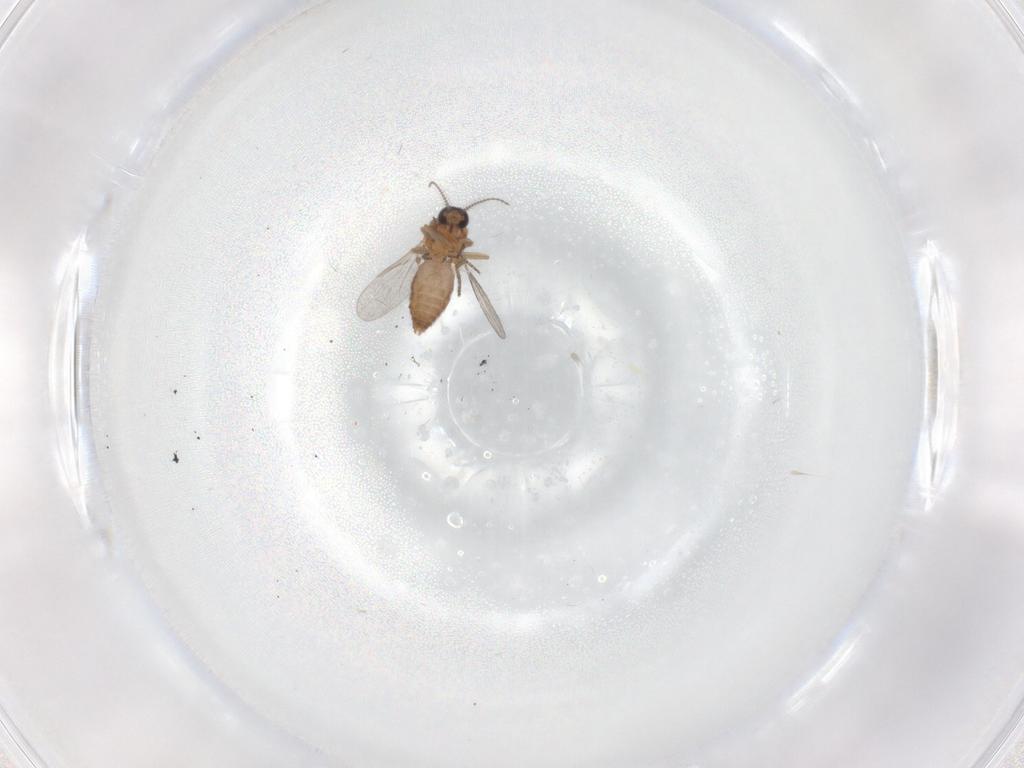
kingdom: Animalia
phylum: Arthropoda
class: Insecta
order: Diptera
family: Ceratopogonidae
